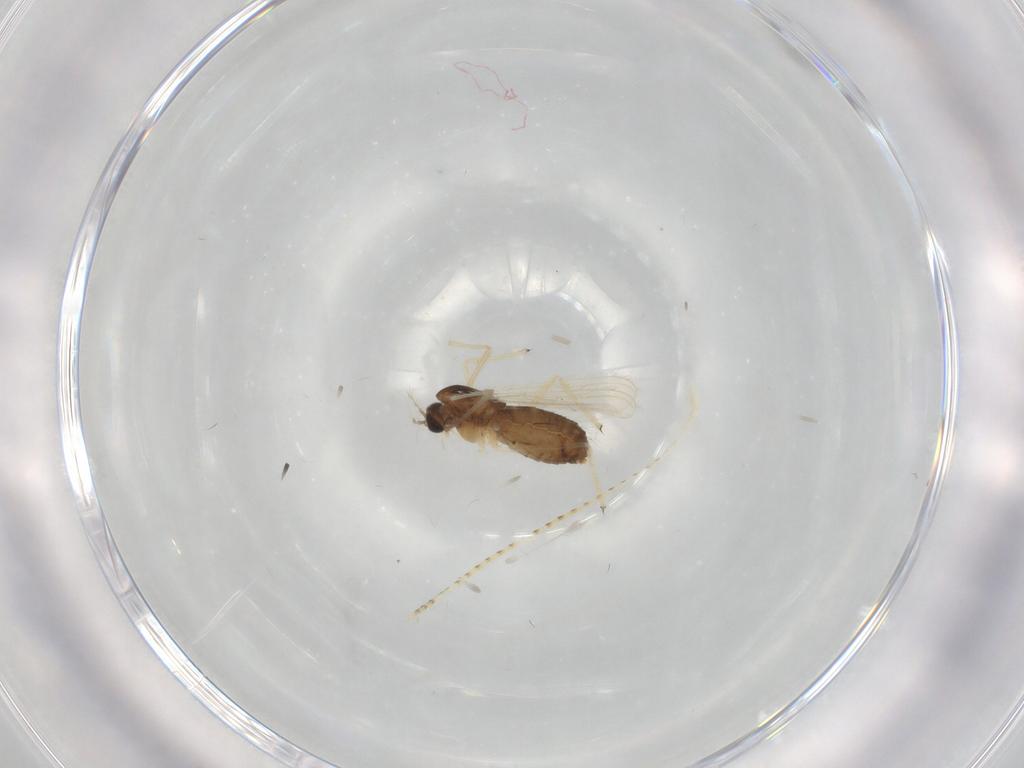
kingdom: Animalia
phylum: Arthropoda
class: Insecta
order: Diptera
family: Chironomidae
